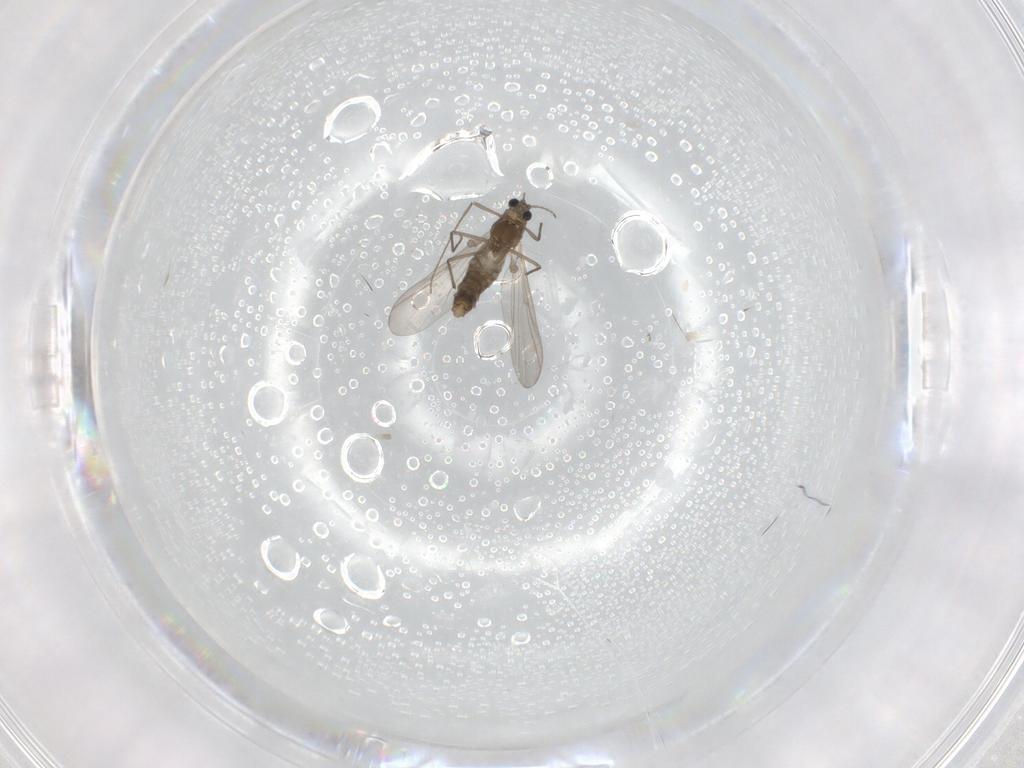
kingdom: Animalia
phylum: Arthropoda
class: Insecta
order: Diptera
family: Chironomidae
